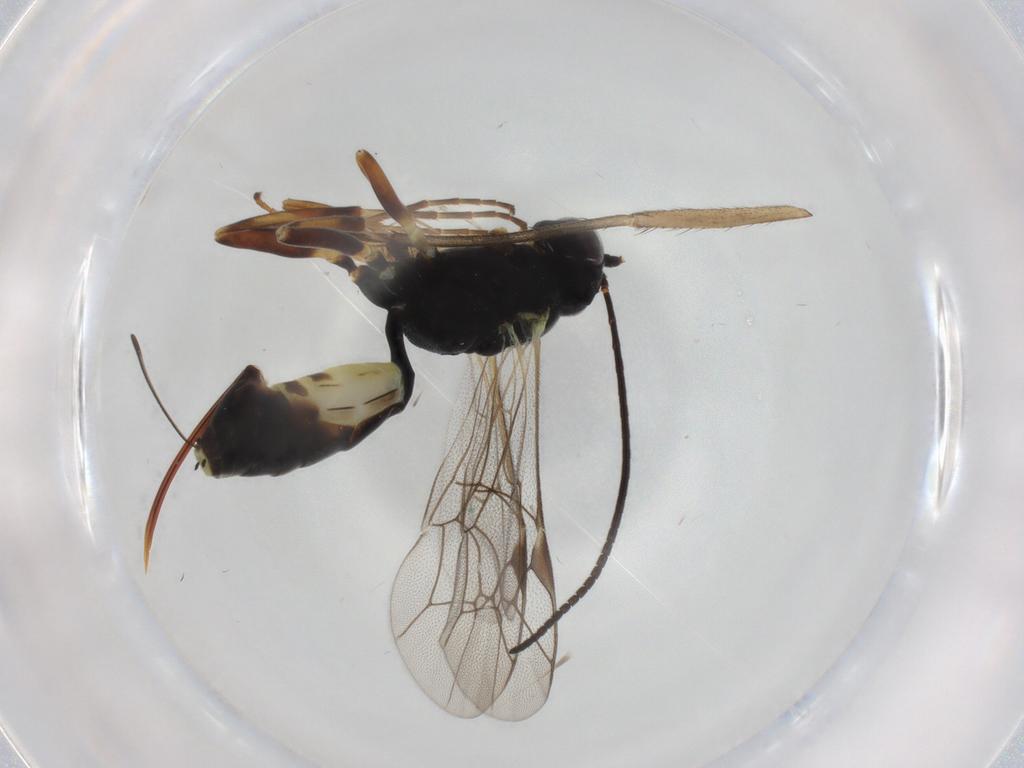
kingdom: Animalia
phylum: Arthropoda
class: Insecta
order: Hymenoptera
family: Ichneumonidae
